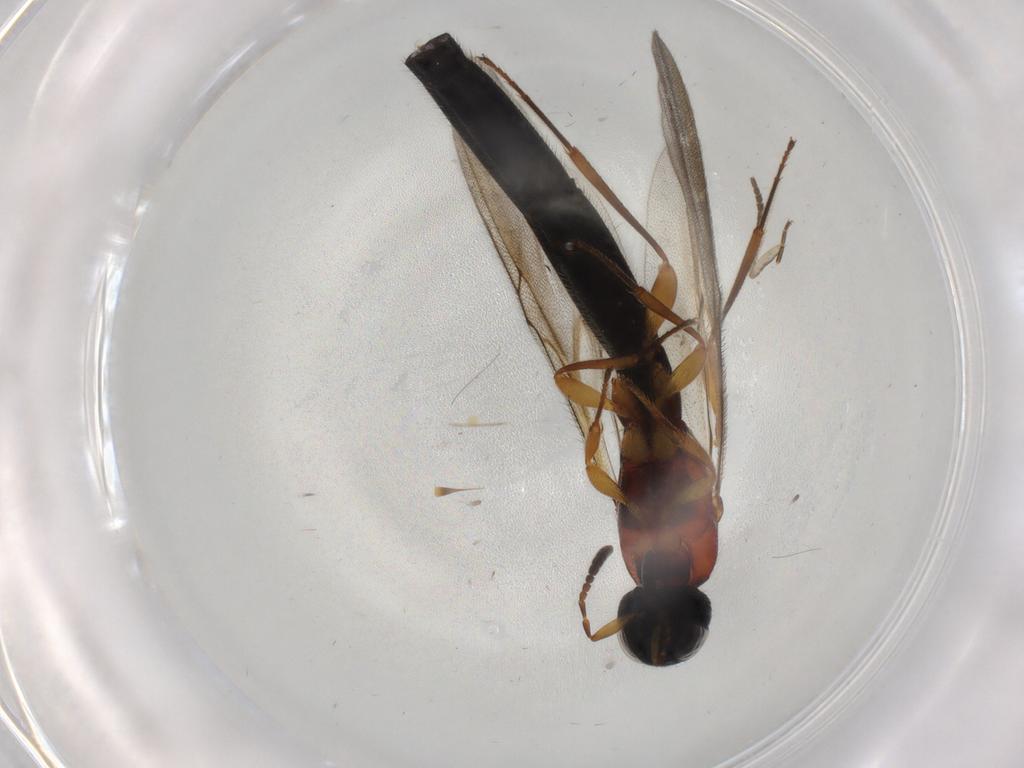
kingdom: Animalia
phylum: Arthropoda
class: Insecta
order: Hymenoptera
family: Scelionidae
